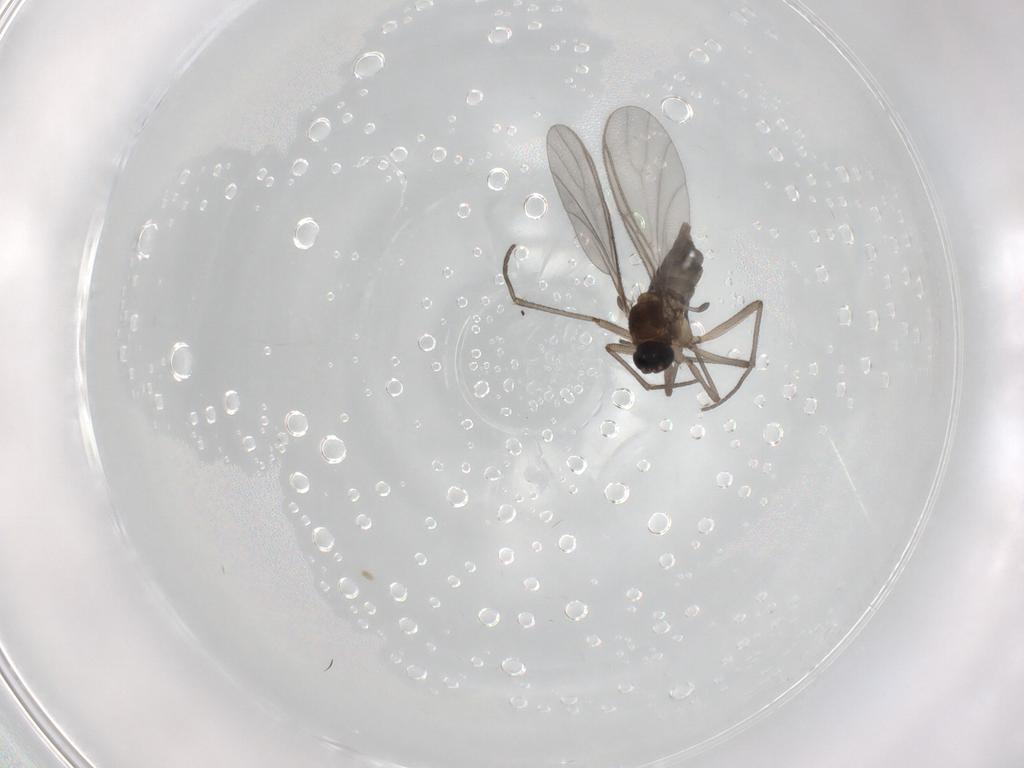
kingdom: Animalia
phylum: Arthropoda
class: Insecta
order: Diptera
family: Sciaridae
